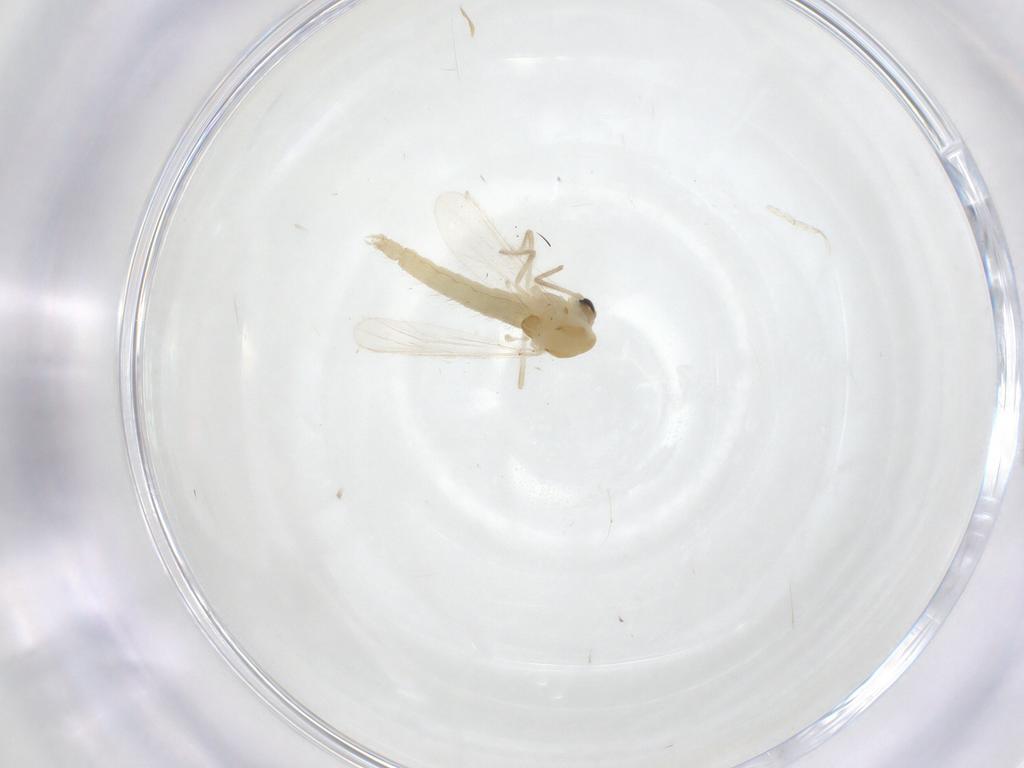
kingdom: Animalia
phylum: Arthropoda
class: Insecta
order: Diptera
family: Chironomidae
